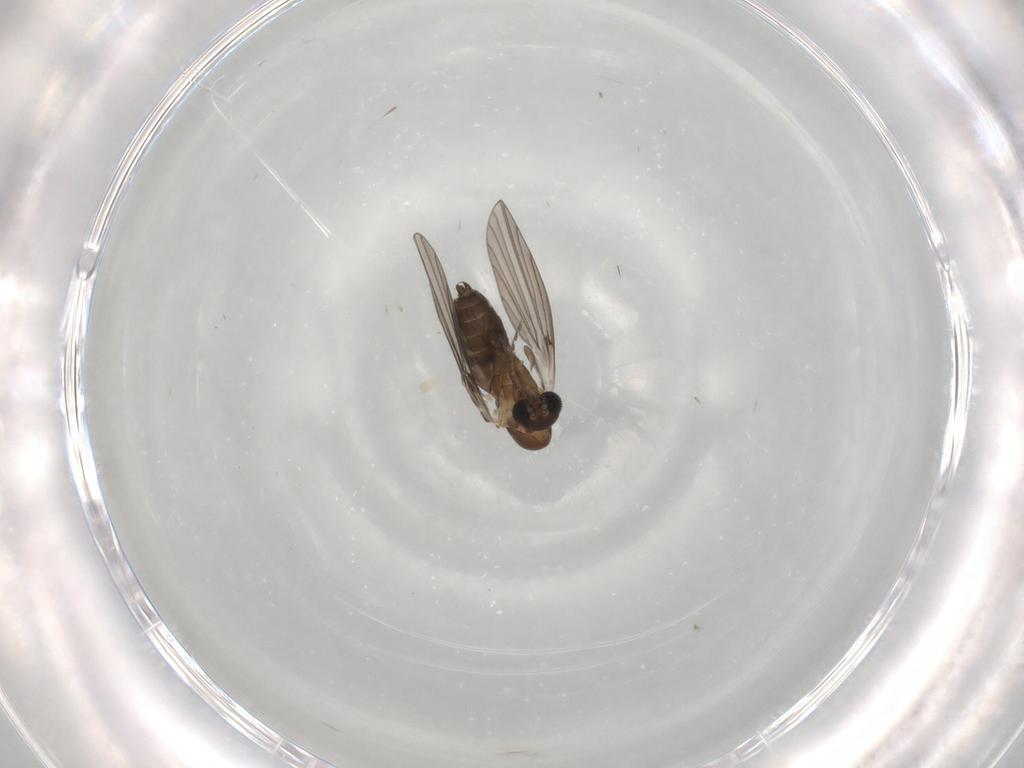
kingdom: Animalia
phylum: Arthropoda
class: Insecta
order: Diptera
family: Psychodidae
